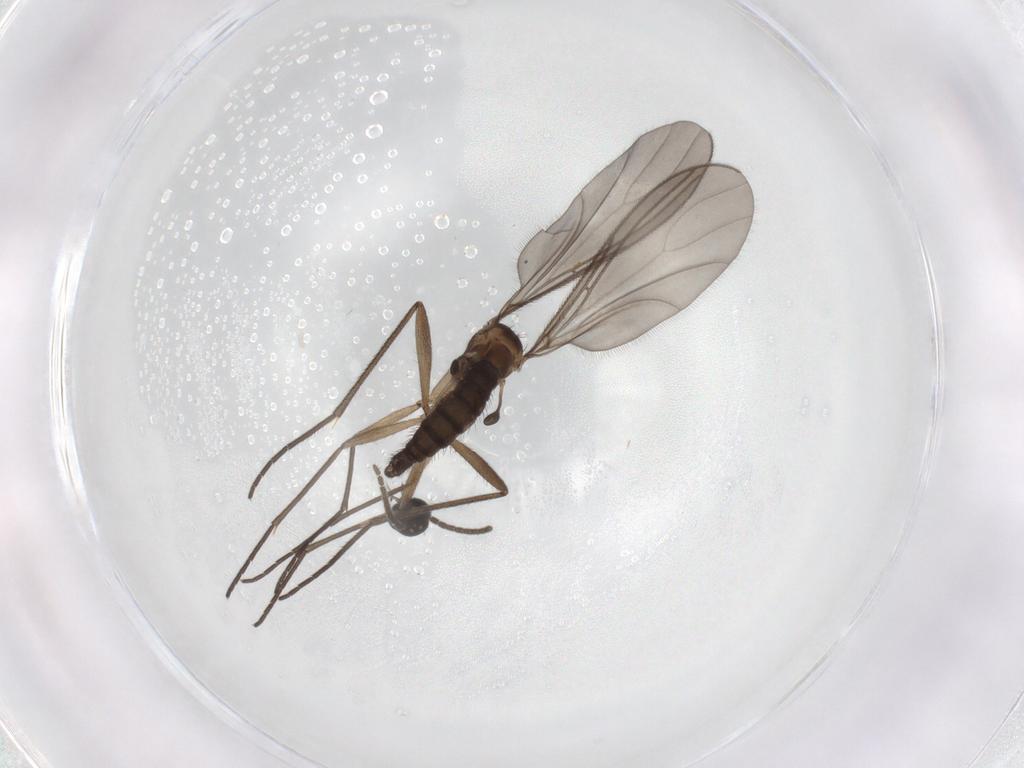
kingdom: Animalia
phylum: Arthropoda
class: Insecta
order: Diptera
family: Sciaridae
